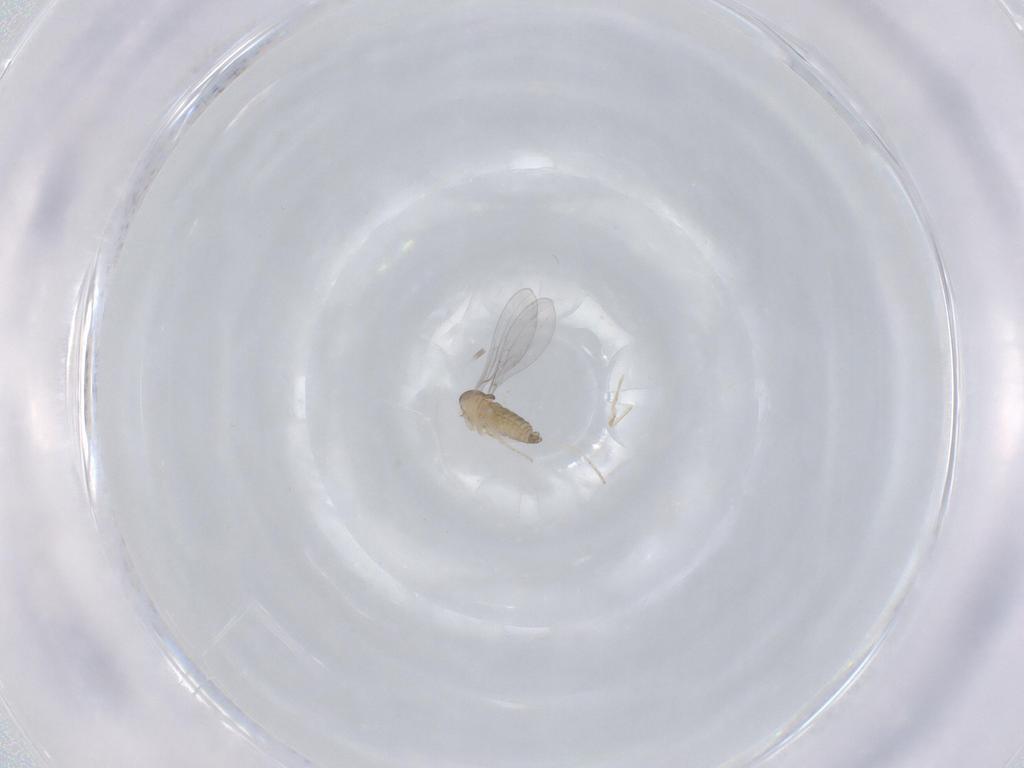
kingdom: Animalia
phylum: Arthropoda
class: Insecta
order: Diptera
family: Cecidomyiidae
